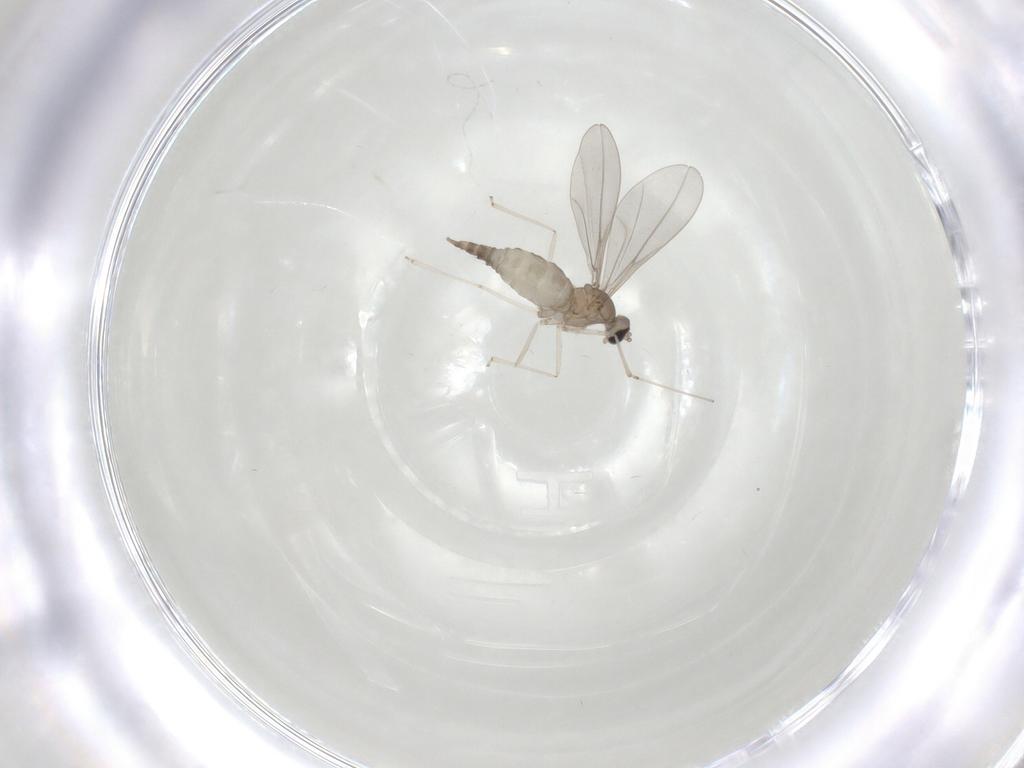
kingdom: Animalia
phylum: Arthropoda
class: Insecta
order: Diptera
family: Cecidomyiidae
